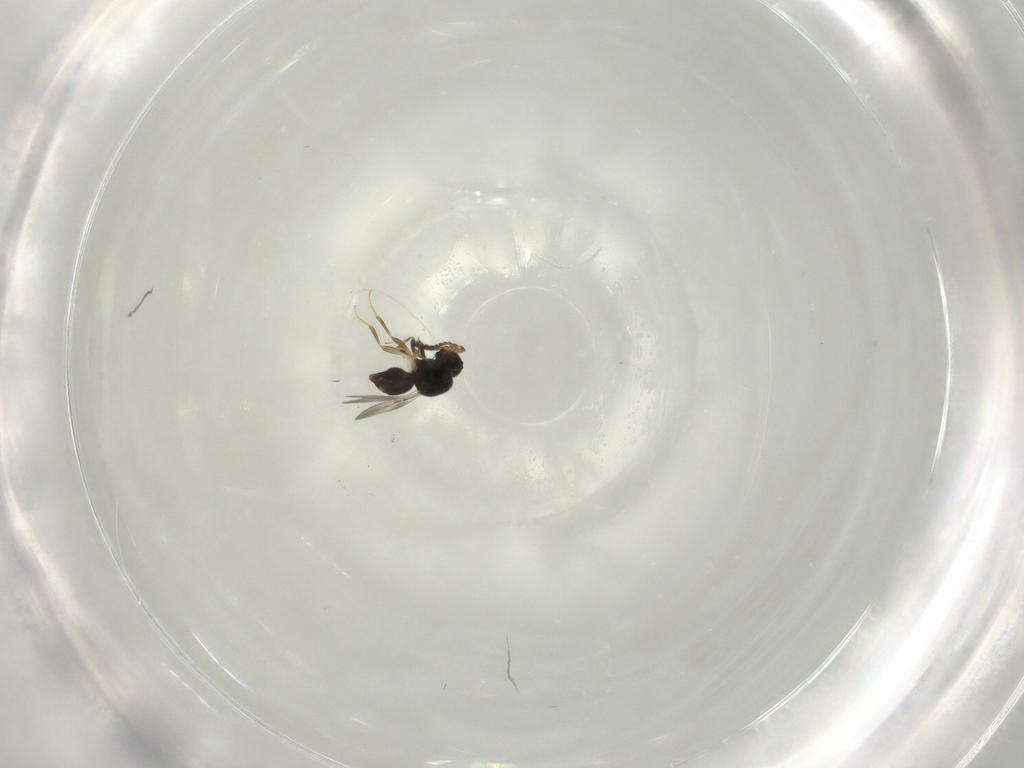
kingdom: Animalia
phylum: Arthropoda
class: Insecta
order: Hymenoptera
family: Ceraphronidae
